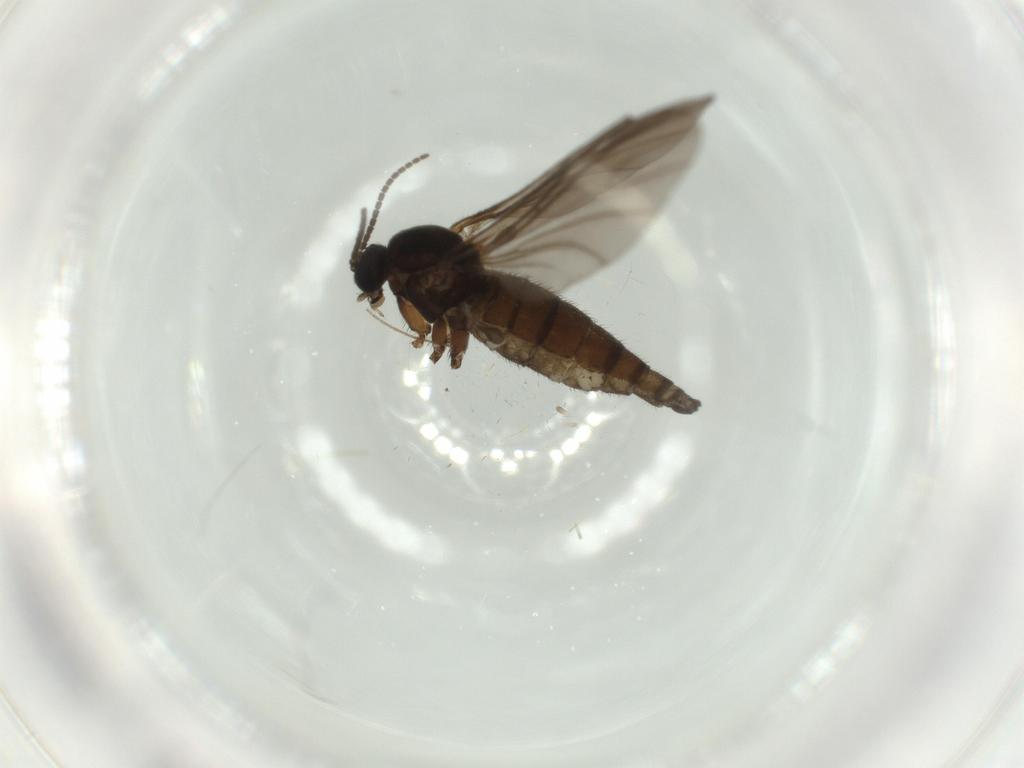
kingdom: Animalia
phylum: Arthropoda
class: Insecta
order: Diptera
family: Sciaridae
